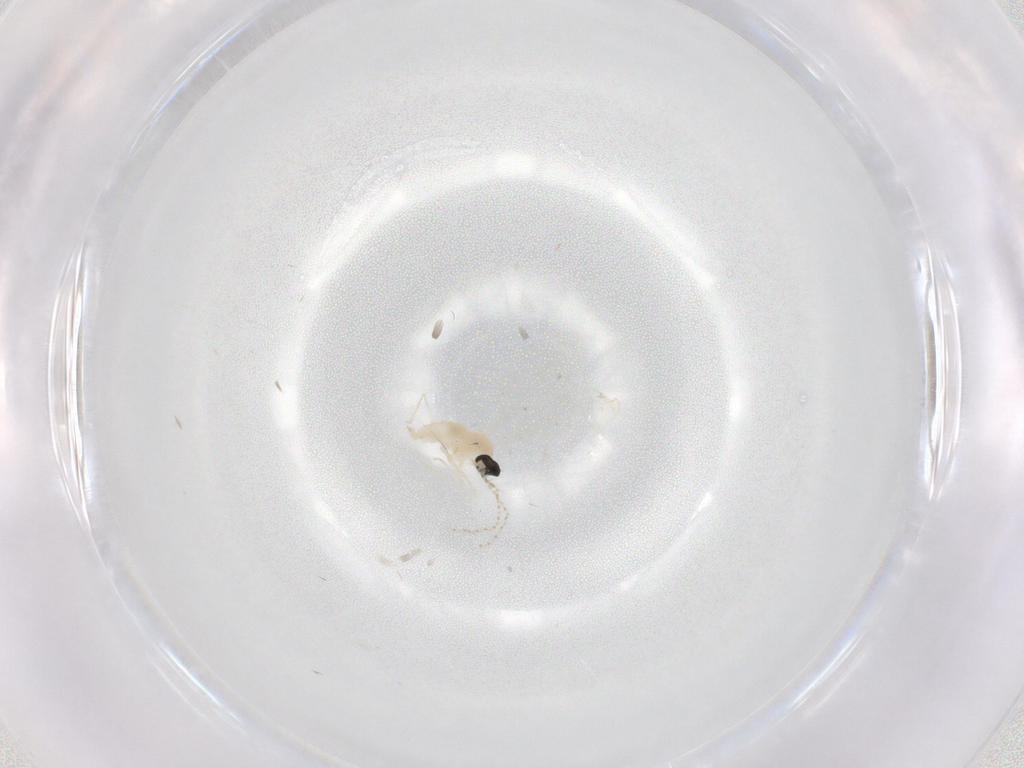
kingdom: Animalia
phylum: Arthropoda
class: Insecta
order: Diptera
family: Cecidomyiidae
